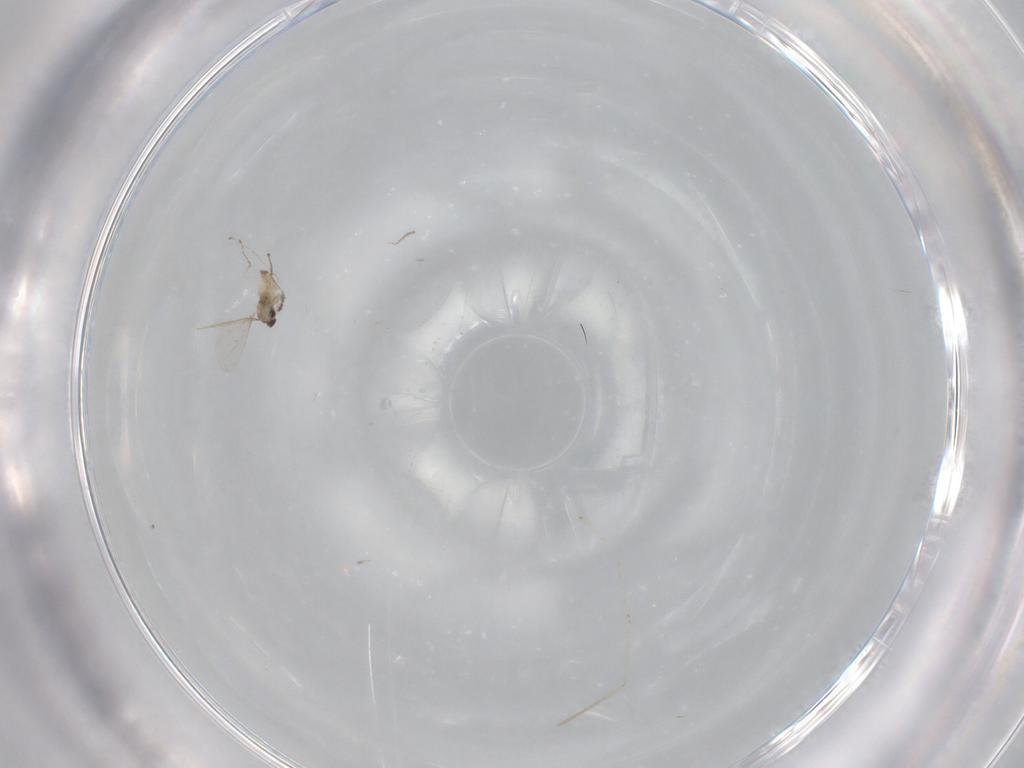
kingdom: Animalia
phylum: Arthropoda
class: Insecta
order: Diptera
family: Cecidomyiidae
